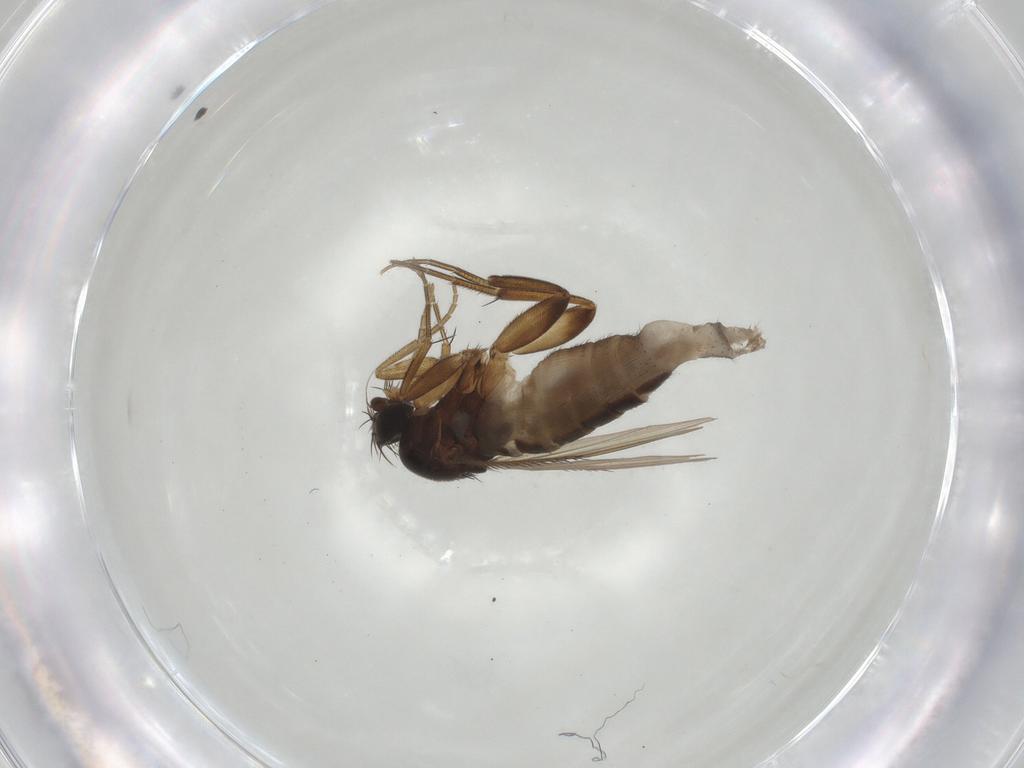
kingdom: Animalia
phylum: Arthropoda
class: Insecta
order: Diptera
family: Phoridae
